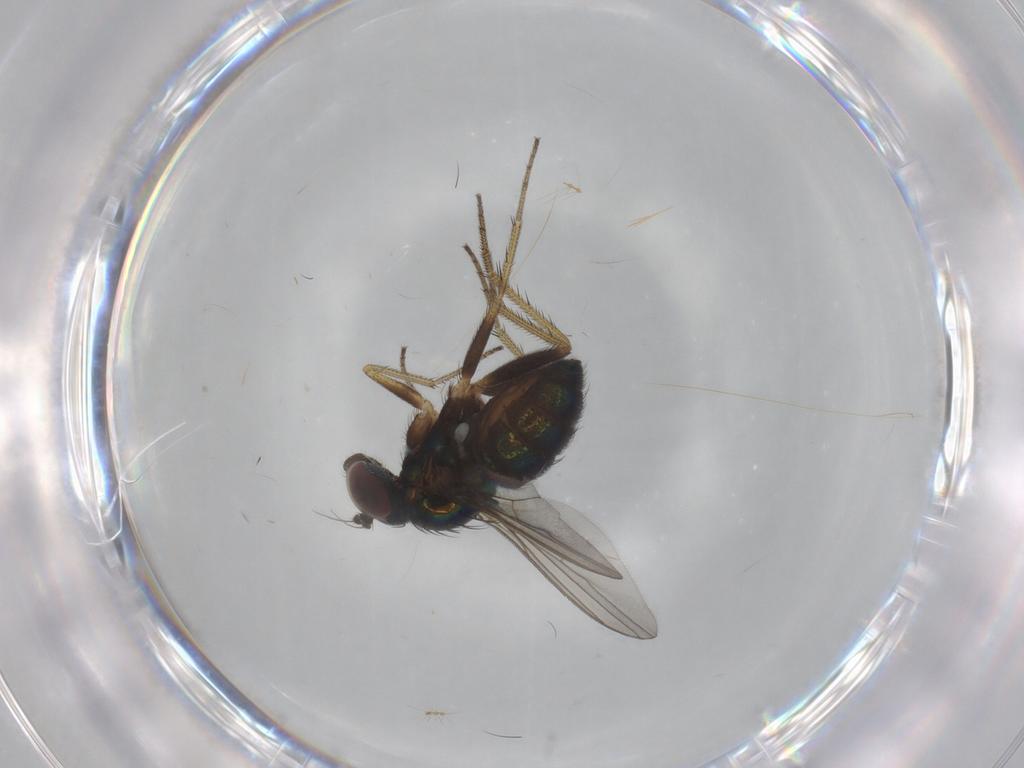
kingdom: Animalia
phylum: Arthropoda
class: Insecta
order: Diptera
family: Dolichopodidae
